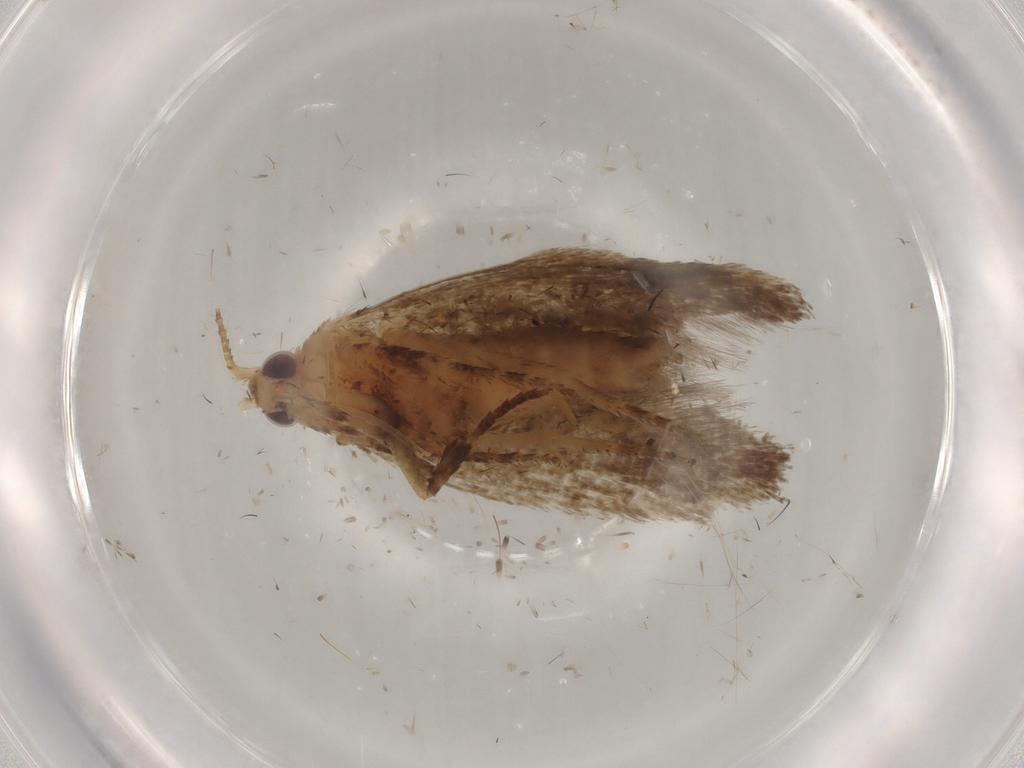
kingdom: Animalia
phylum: Arthropoda
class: Insecta
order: Lepidoptera
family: Ypsolophidae
